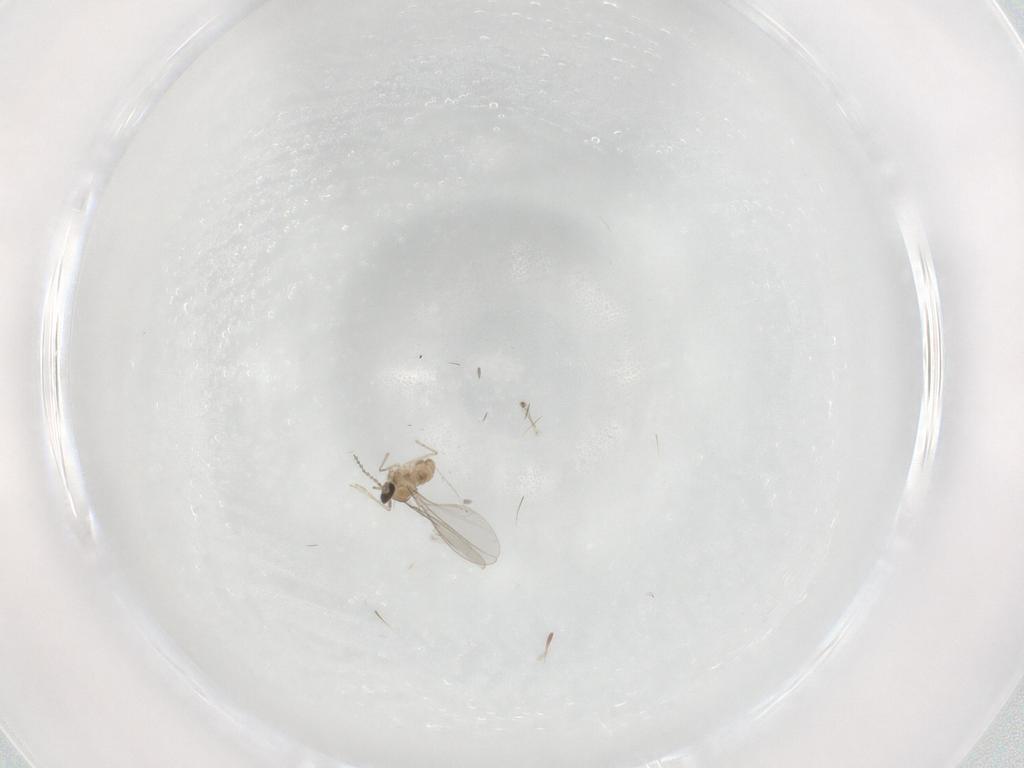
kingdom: Animalia
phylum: Arthropoda
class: Insecta
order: Diptera
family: Cecidomyiidae
